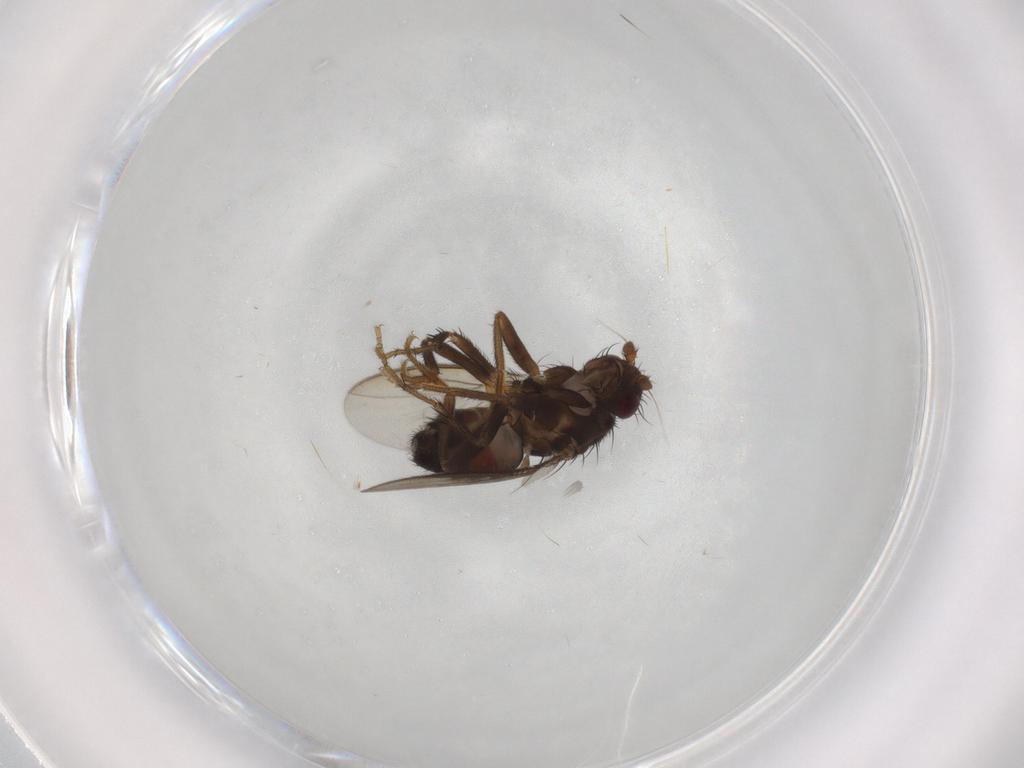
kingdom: Animalia
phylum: Arthropoda
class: Insecta
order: Diptera
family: Sphaeroceridae
